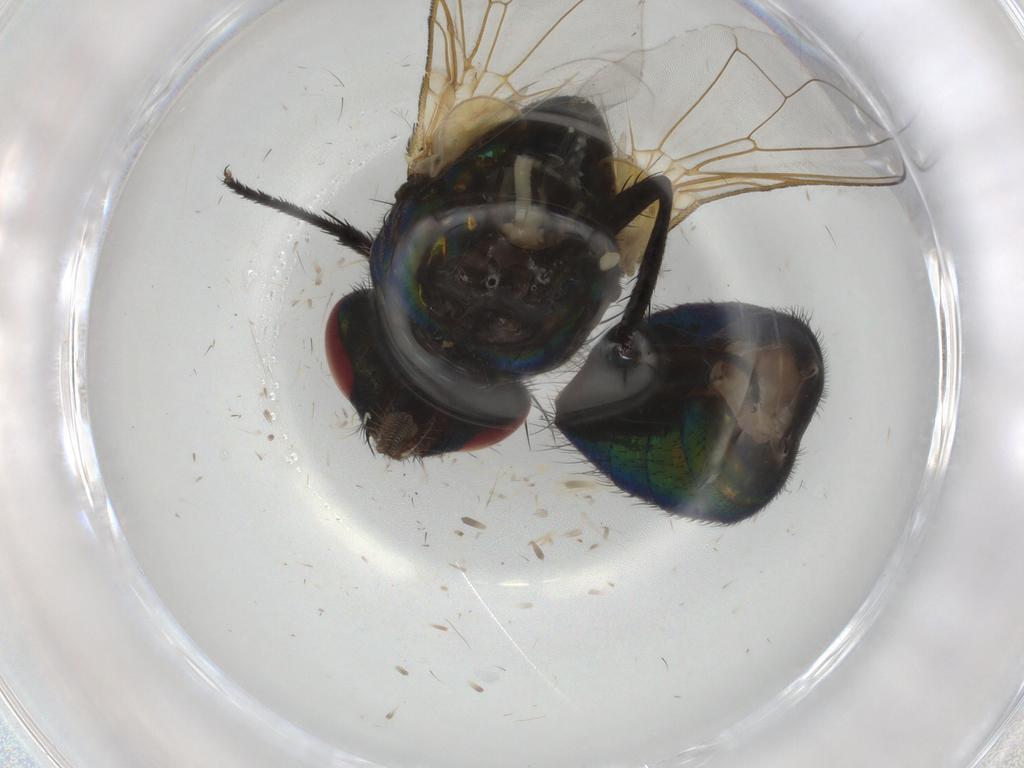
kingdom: Animalia
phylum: Arthropoda
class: Insecta
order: Diptera
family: Muscidae
